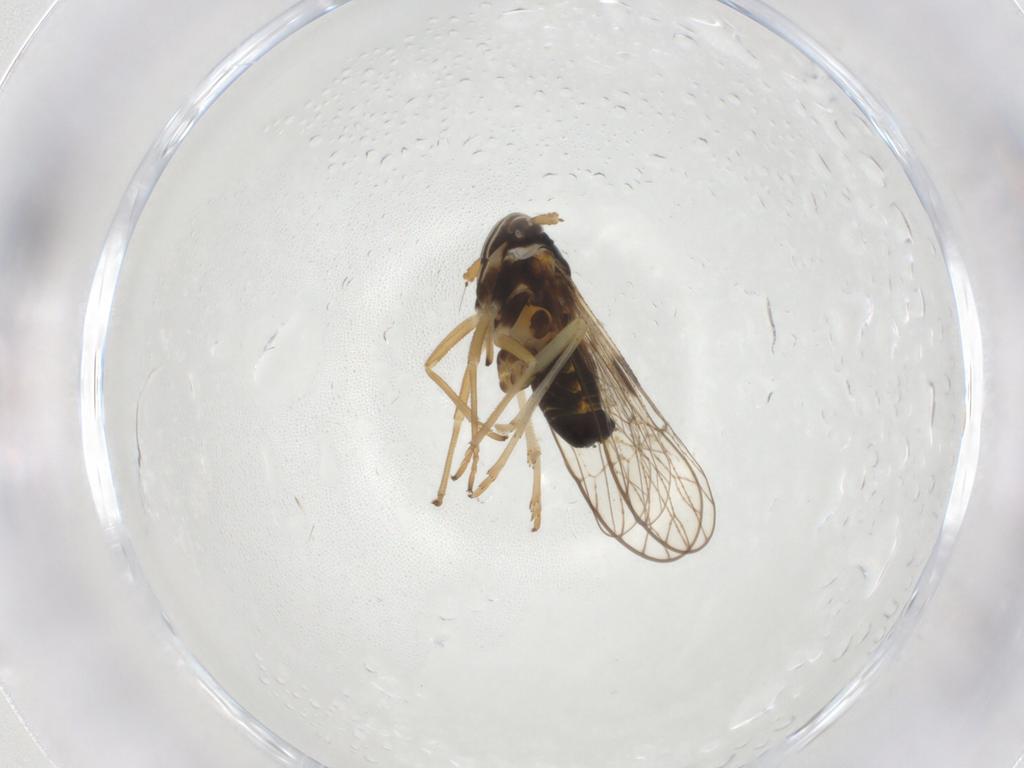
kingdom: Animalia
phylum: Arthropoda
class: Insecta
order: Hemiptera
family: Cicadellidae
